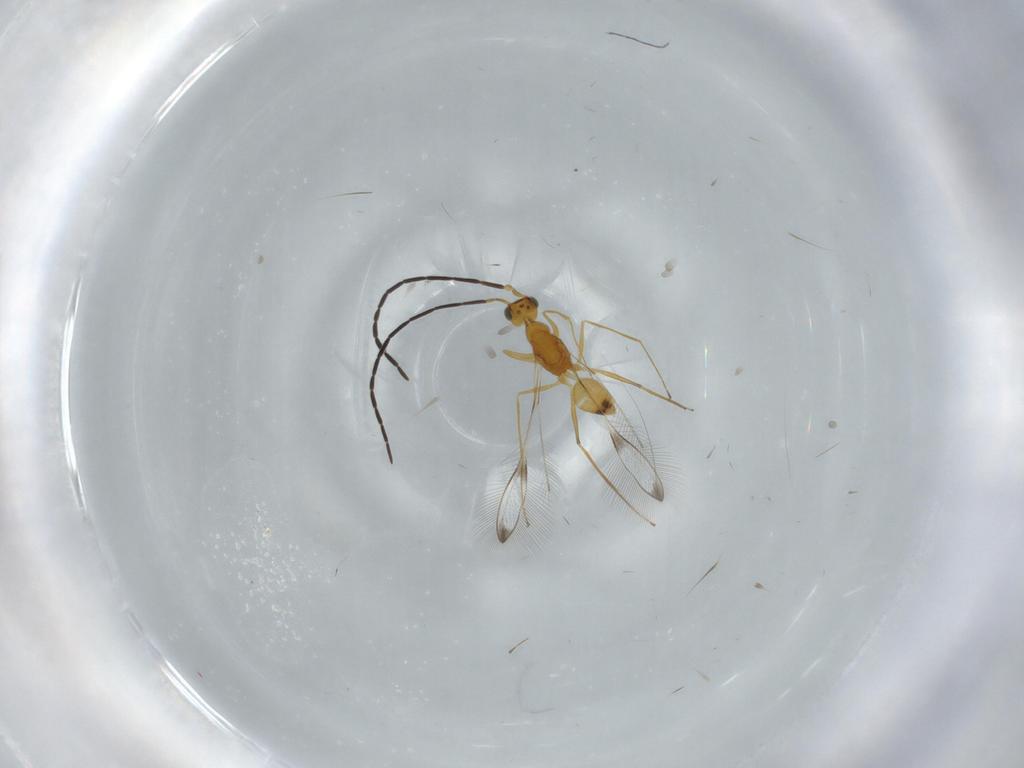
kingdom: Animalia
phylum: Arthropoda
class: Insecta
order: Hymenoptera
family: Mymaridae
